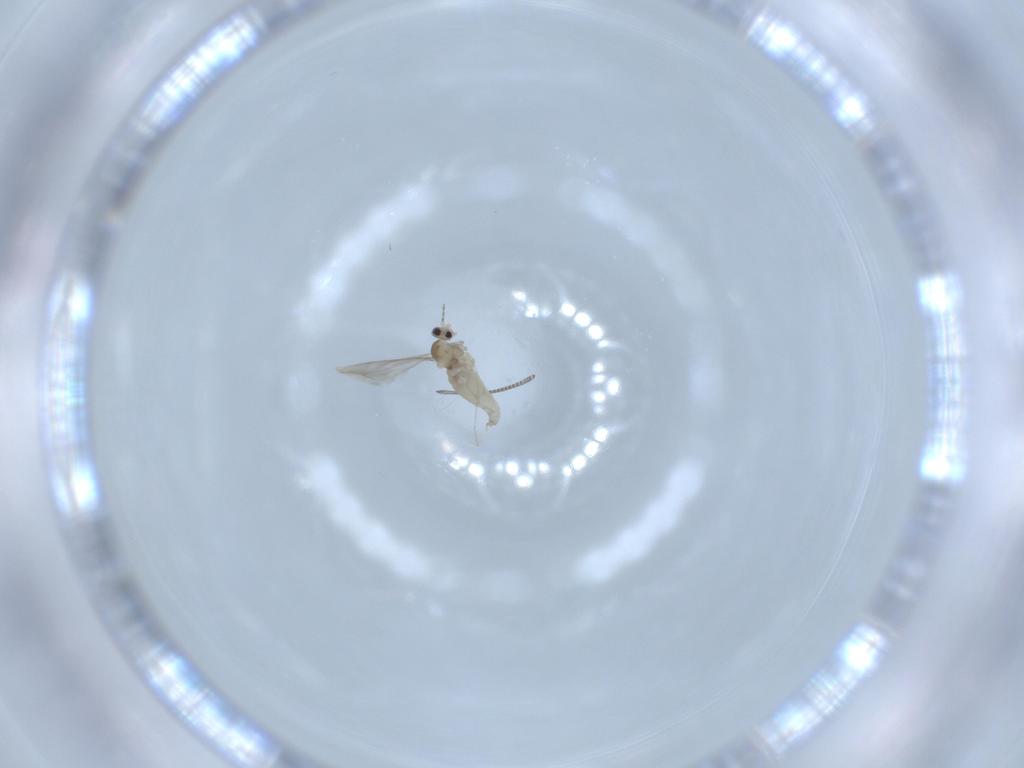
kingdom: Animalia
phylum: Arthropoda
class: Insecta
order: Diptera
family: Chironomidae
